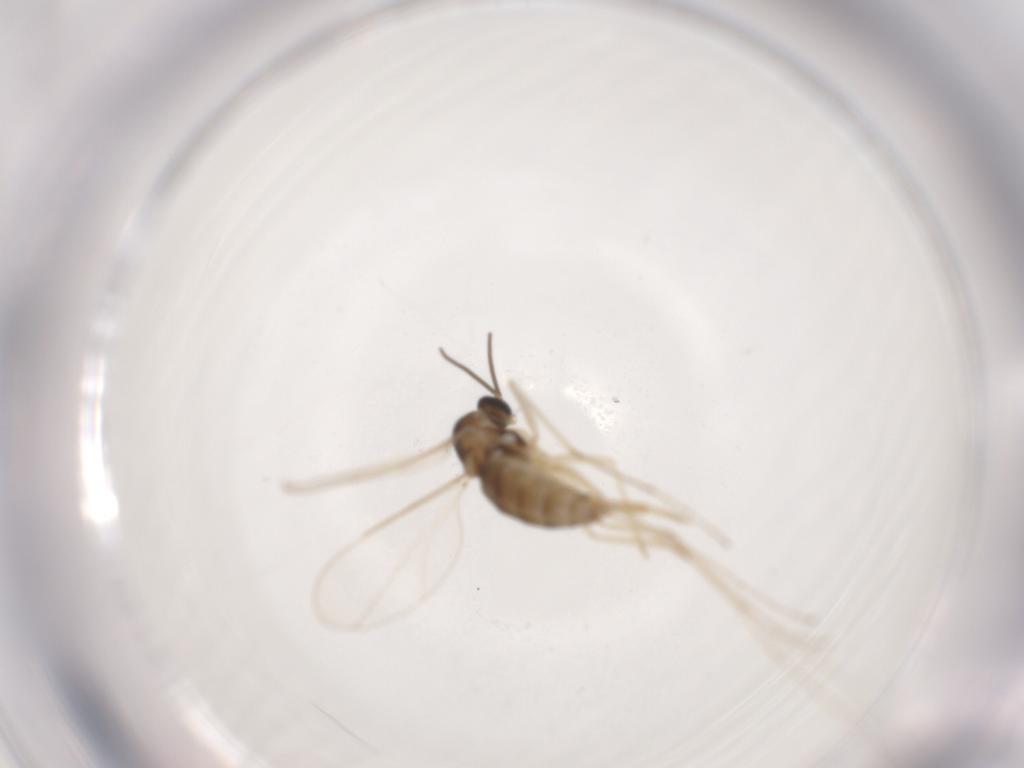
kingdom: Animalia
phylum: Arthropoda
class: Insecta
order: Diptera
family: Cecidomyiidae
